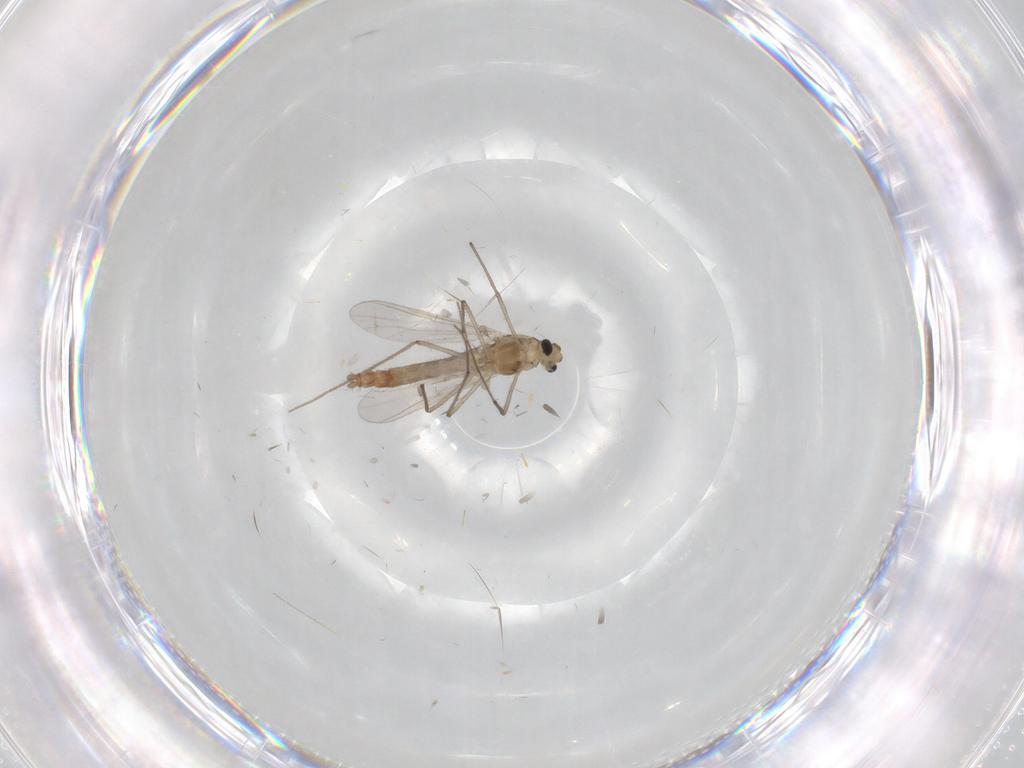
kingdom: Animalia
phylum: Arthropoda
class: Insecta
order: Diptera
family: Chironomidae
